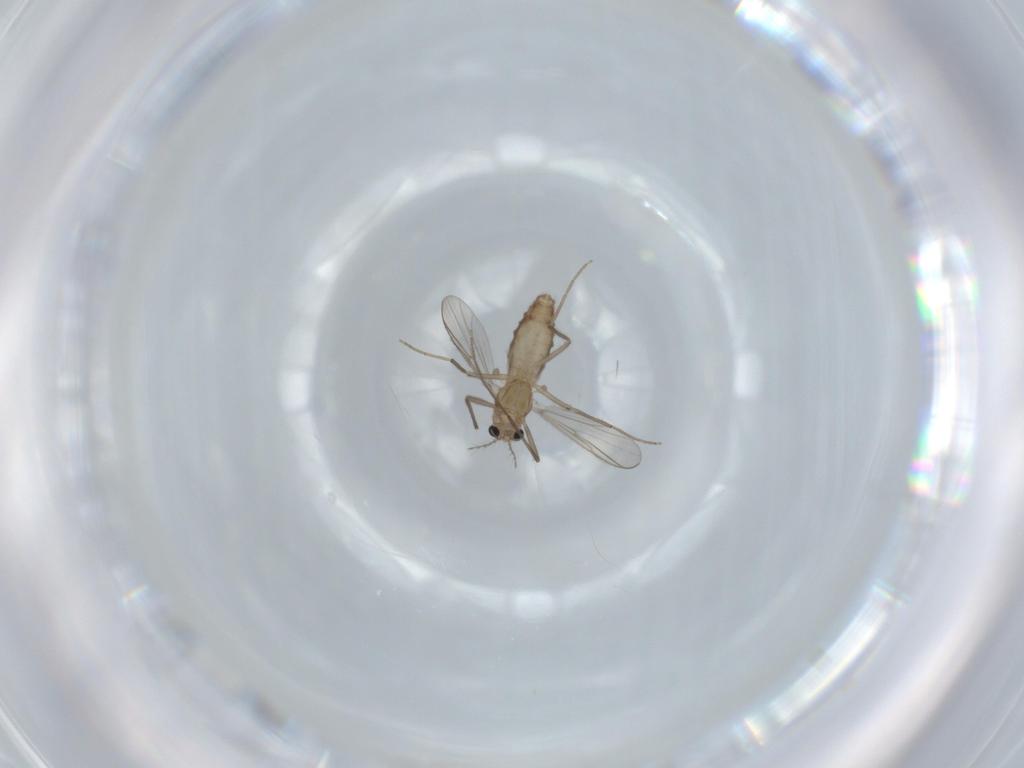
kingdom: Animalia
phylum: Arthropoda
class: Insecta
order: Diptera
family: Chironomidae
